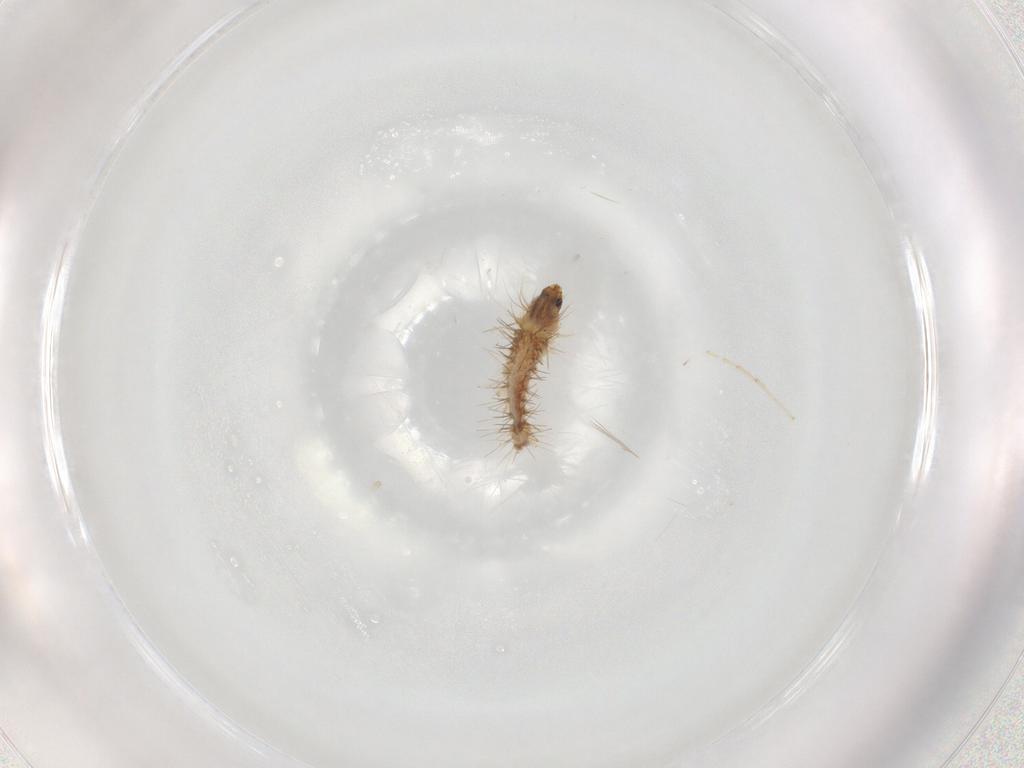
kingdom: Animalia
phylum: Arthropoda
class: Insecta
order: Lepidoptera
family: Zygaenidae
